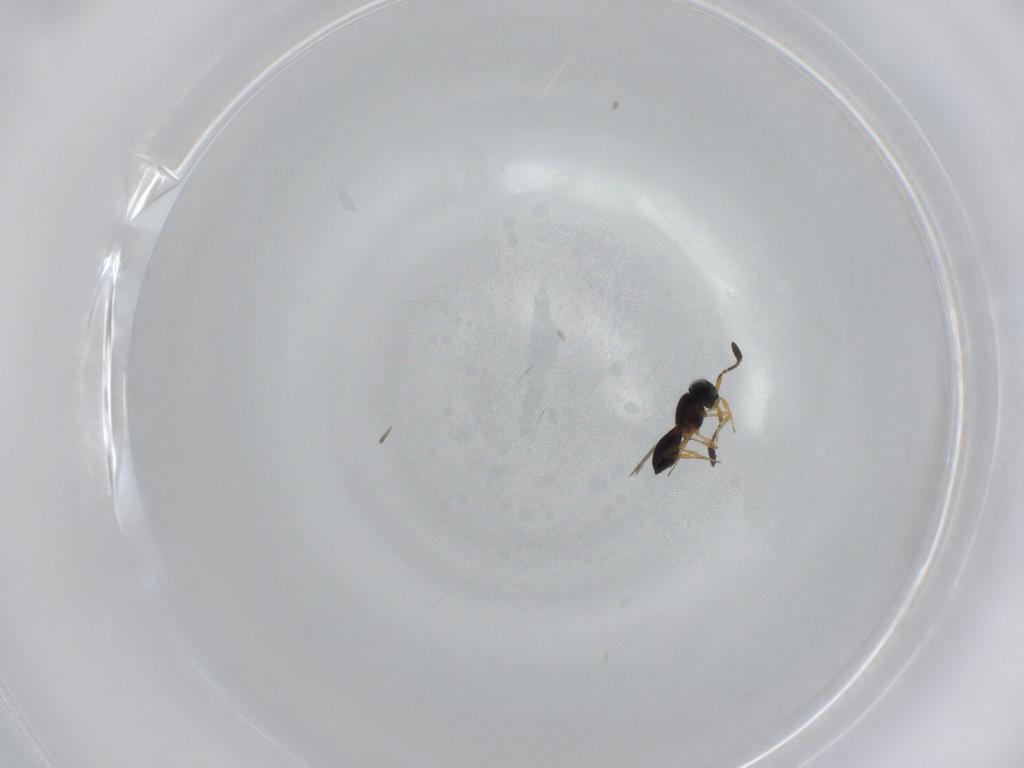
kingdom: Animalia
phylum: Arthropoda
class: Insecta
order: Hymenoptera
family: Scelionidae
